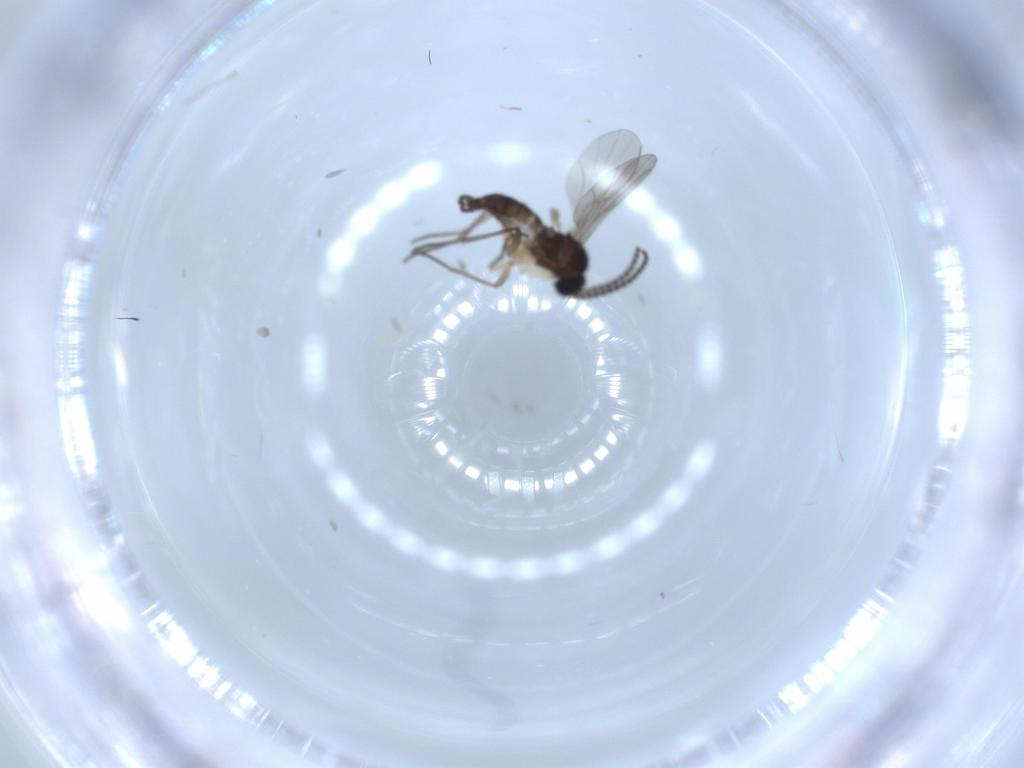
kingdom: Animalia
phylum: Arthropoda
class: Insecta
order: Diptera
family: Sciaridae
